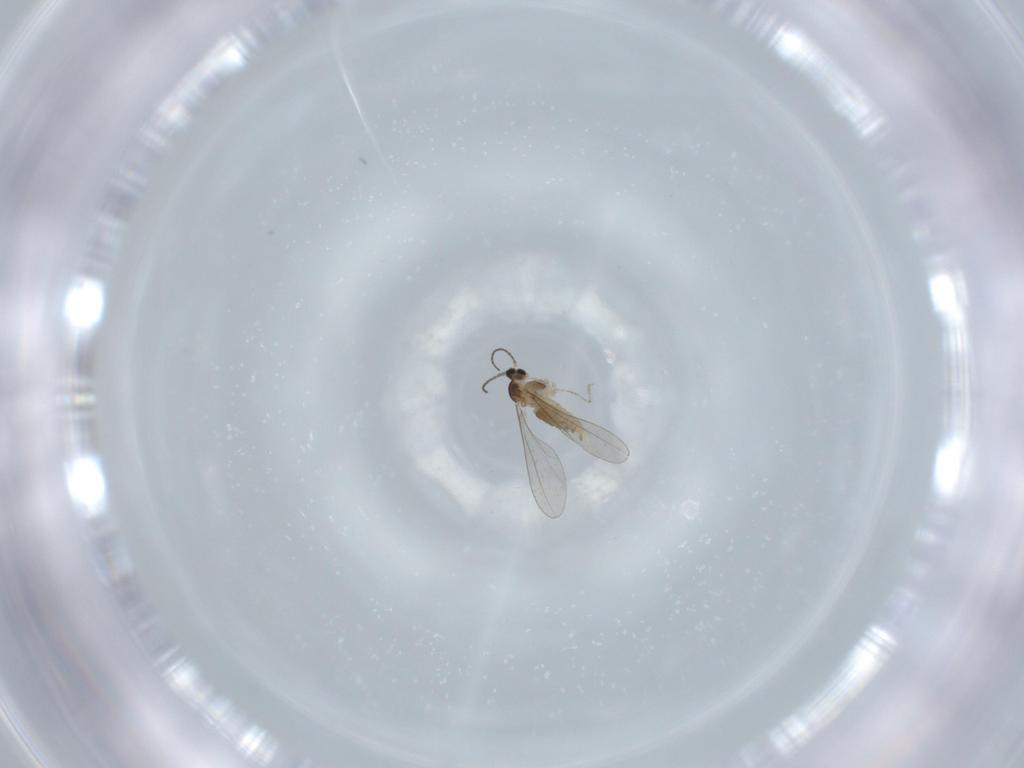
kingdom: Animalia
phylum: Arthropoda
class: Insecta
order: Diptera
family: Cecidomyiidae
